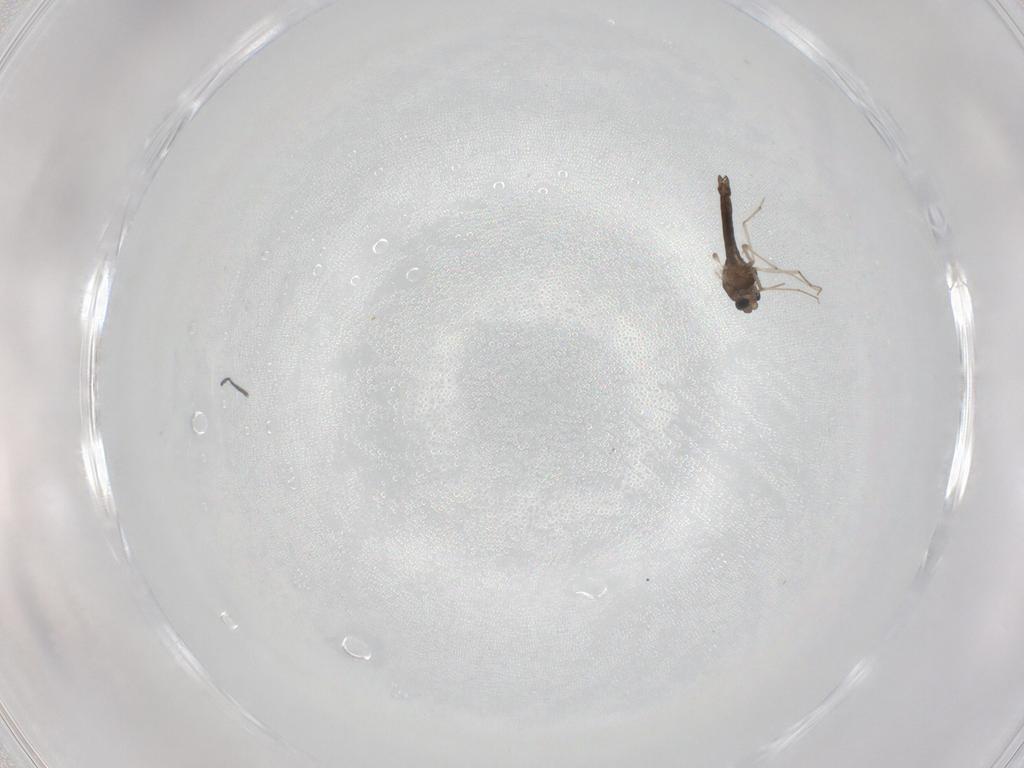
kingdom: Animalia
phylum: Arthropoda
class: Insecta
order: Diptera
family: Chironomidae
